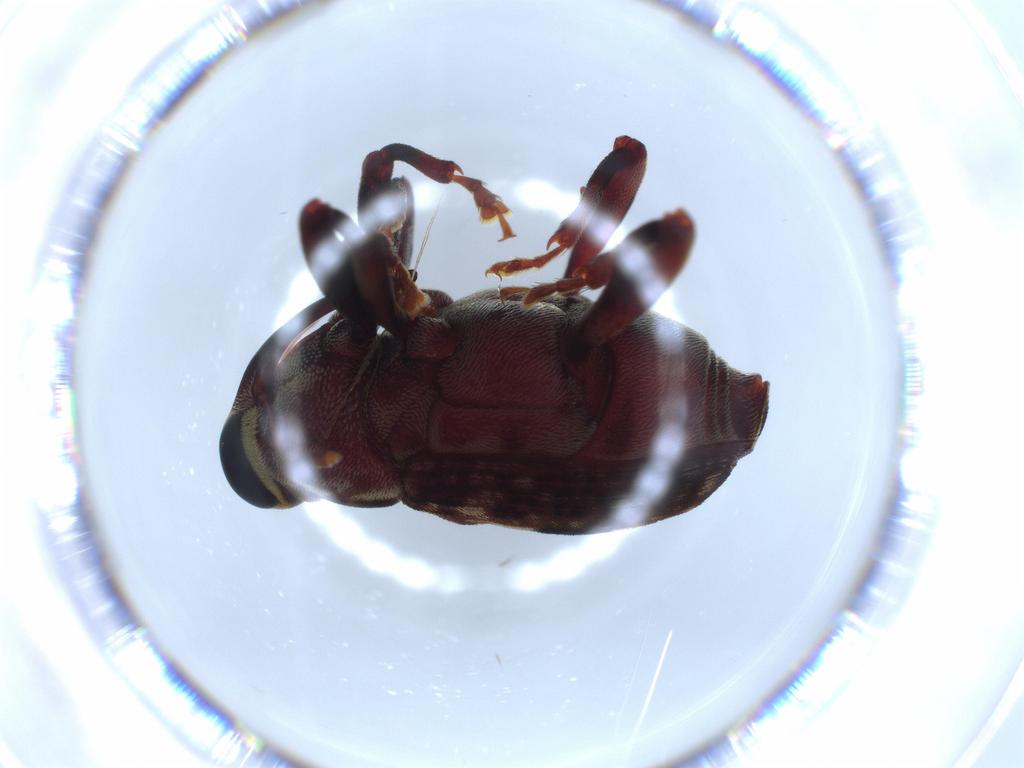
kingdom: Animalia
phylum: Arthropoda
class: Insecta
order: Coleoptera
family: Curculionidae
